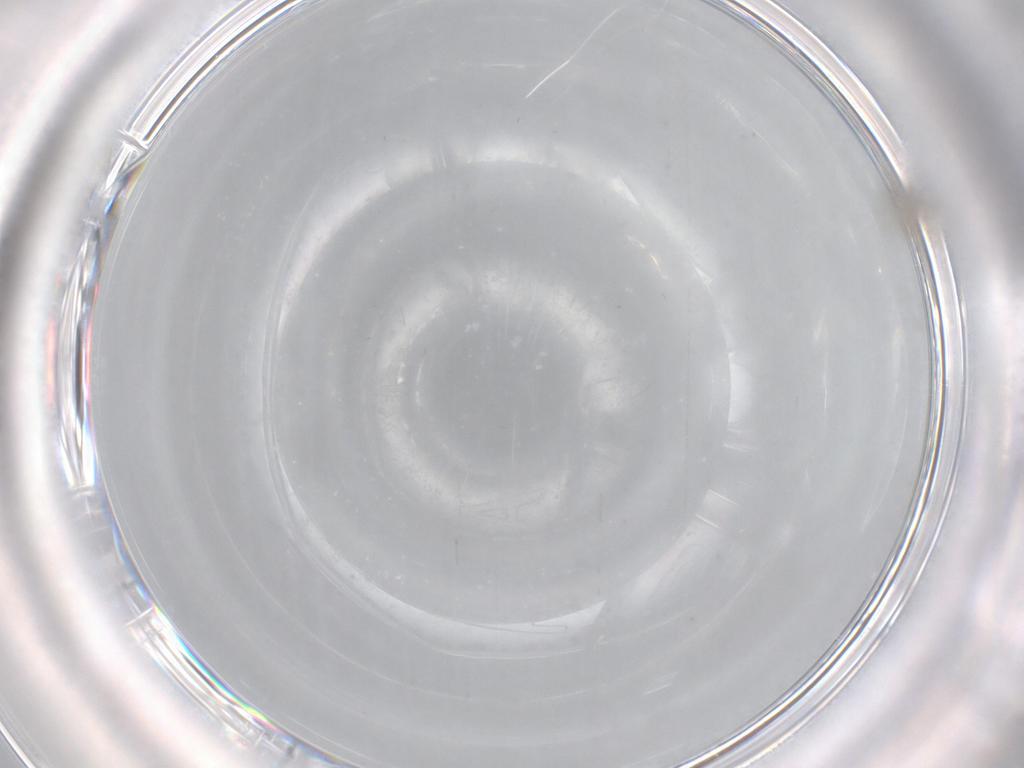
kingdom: Animalia
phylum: Arthropoda
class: Insecta
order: Diptera
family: Cecidomyiidae
